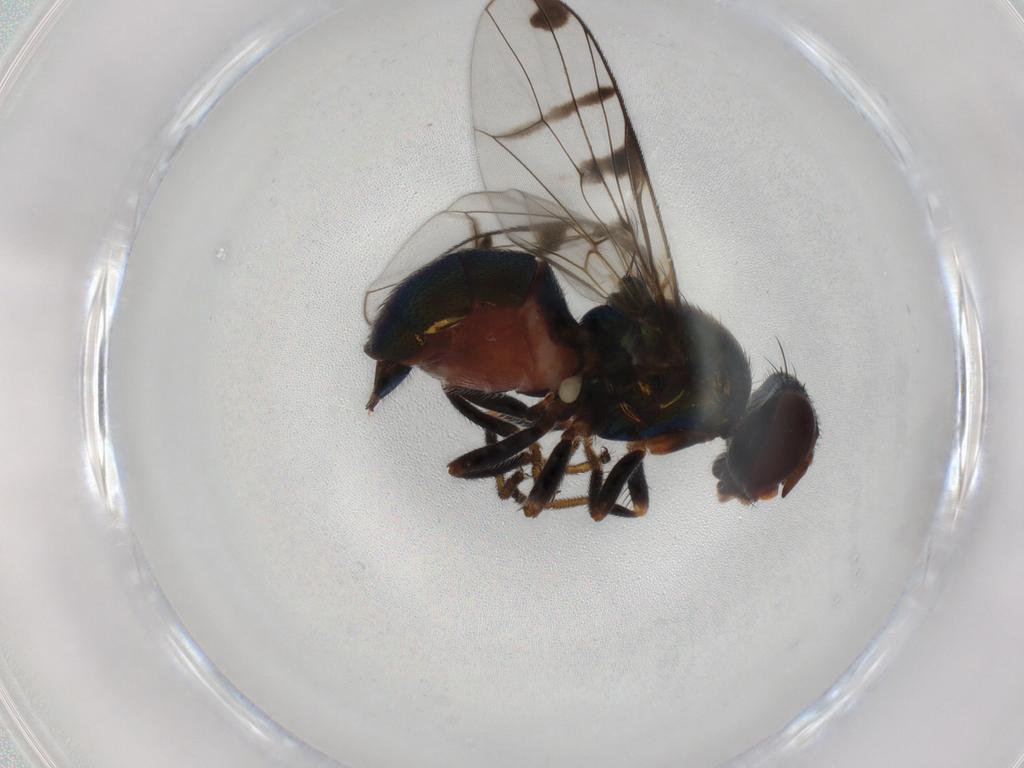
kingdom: Animalia
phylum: Arthropoda
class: Insecta
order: Diptera
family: Platystomatidae
